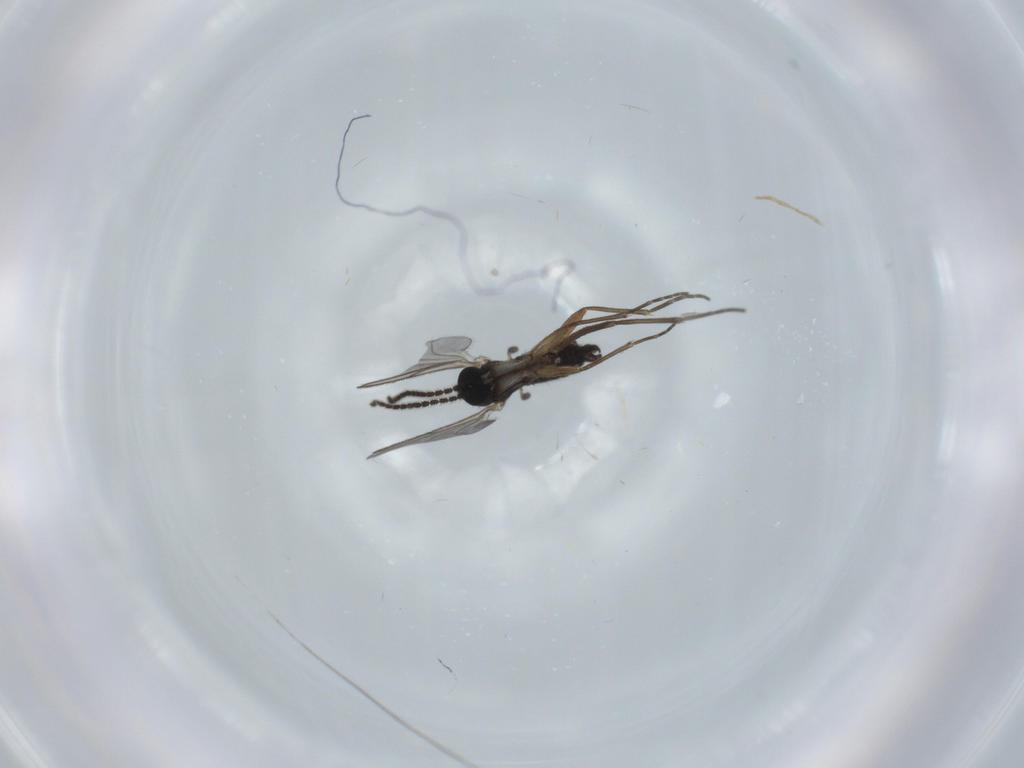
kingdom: Animalia
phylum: Arthropoda
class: Insecta
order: Diptera
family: Sciaridae
